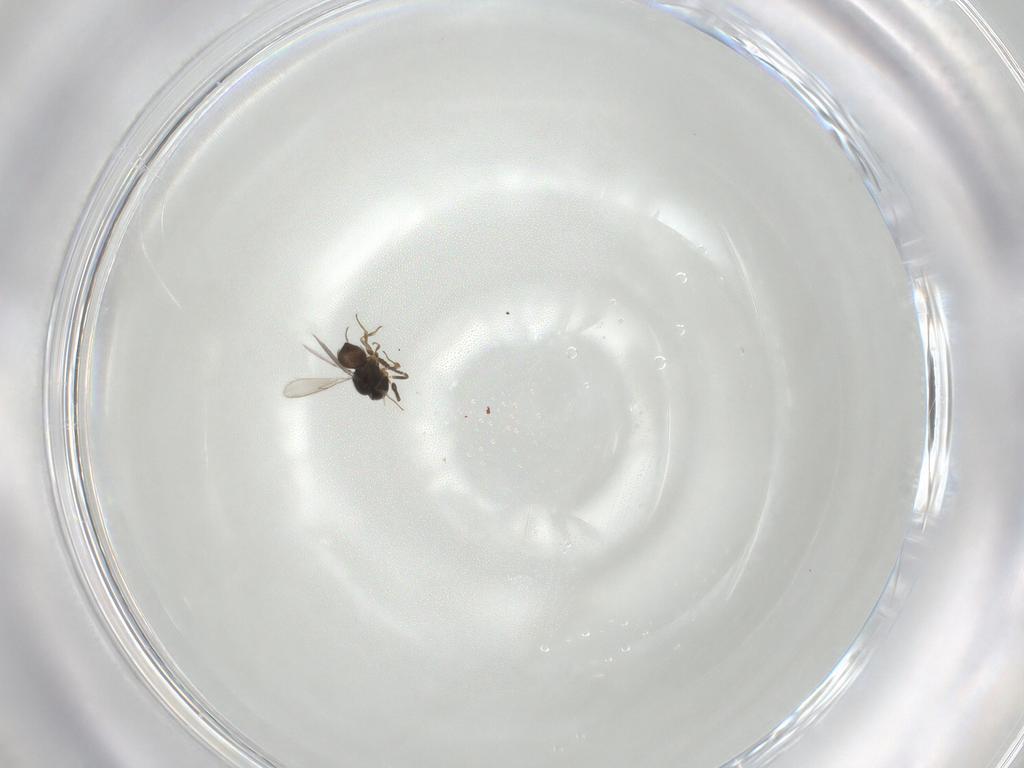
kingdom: Animalia
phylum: Arthropoda
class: Insecta
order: Hymenoptera
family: Scelionidae
